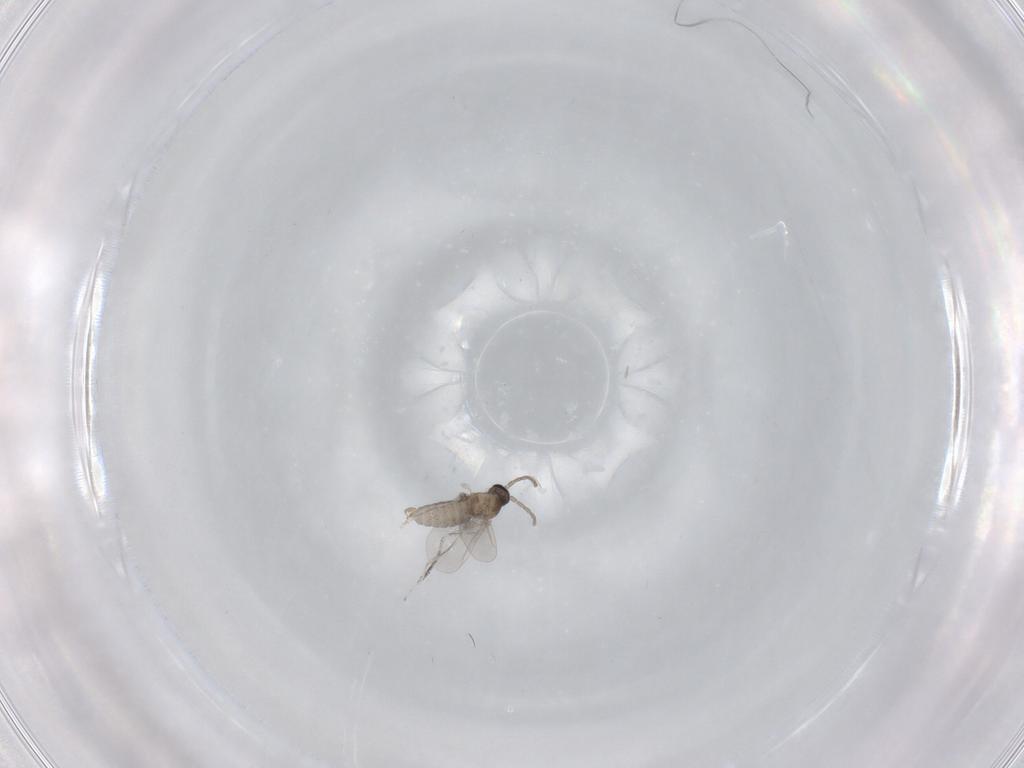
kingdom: Animalia
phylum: Arthropoda
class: Insecta
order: Diptera
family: Cecidomyiidae
